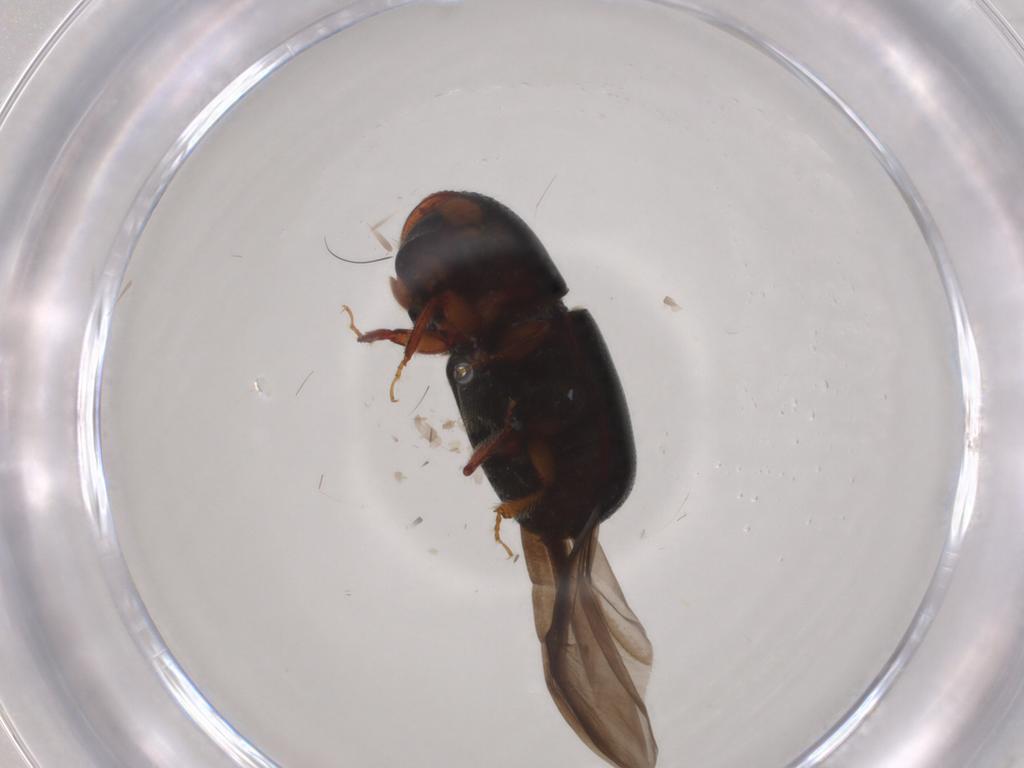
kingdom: Animalia
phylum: Arthropoda
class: Insecta
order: Coleoptera
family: Curculionidae
